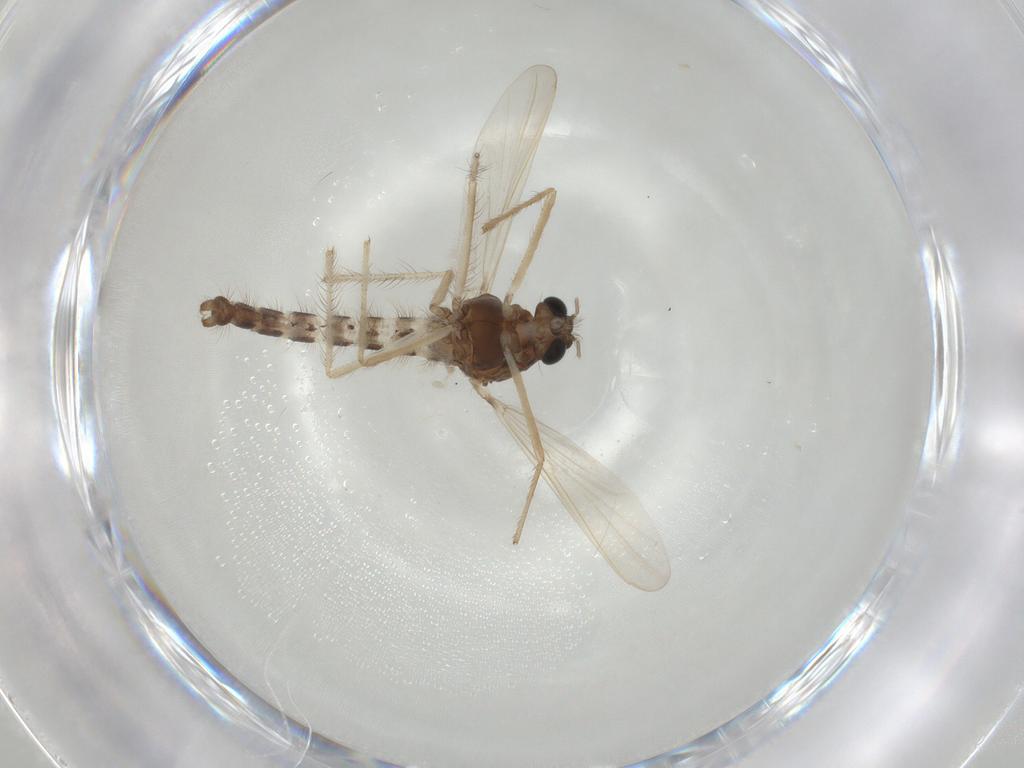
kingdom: Animalia
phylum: Arthropoda
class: Insecta
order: Diptera
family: Chironomidae
